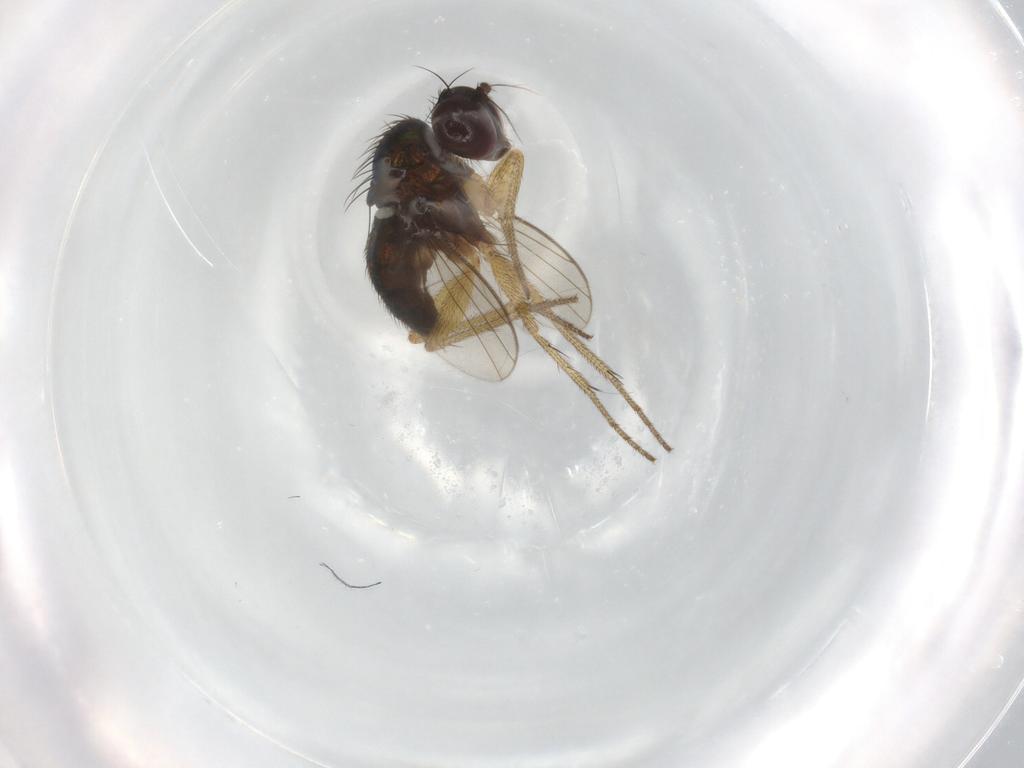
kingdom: Animalia
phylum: Arthropoda
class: Insecta
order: Diptera
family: Dolichopodidae
